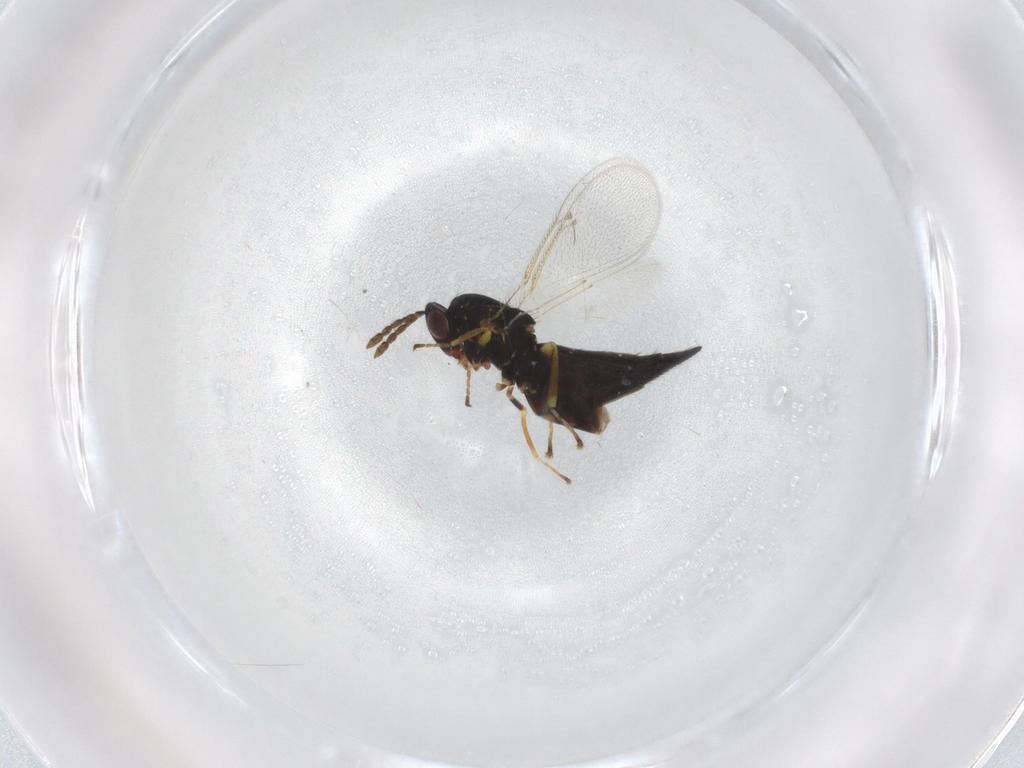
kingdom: Animalia
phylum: Arthropoda
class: Insecta
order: Hymenoptera
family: Eulophidae
